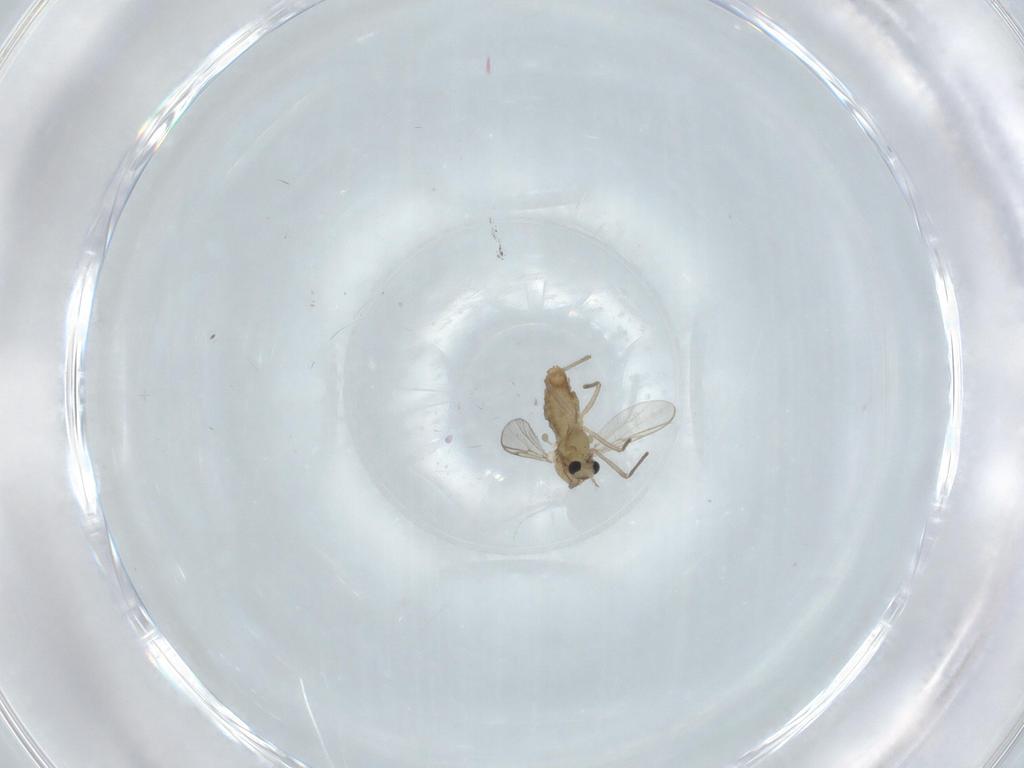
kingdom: Animalia
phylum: Arthropoda
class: Insecta
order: Diptera
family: Chironomidae
